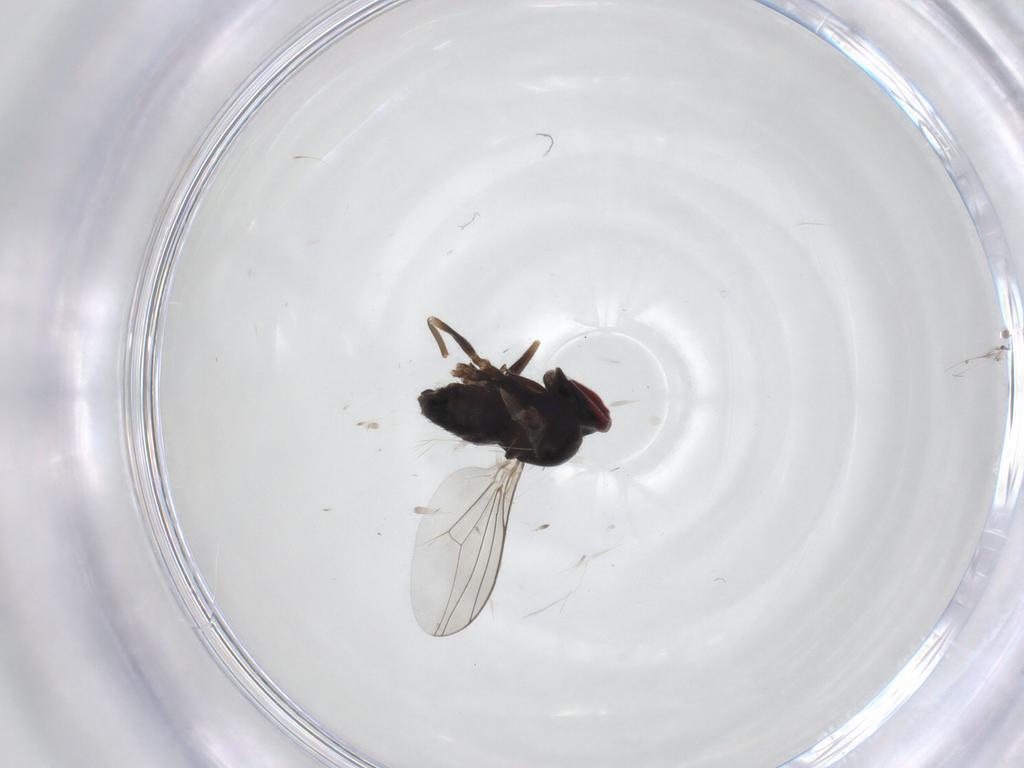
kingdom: Animalia
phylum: Arthropoda
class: Insecta
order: Diptera
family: Dolichopodidae
